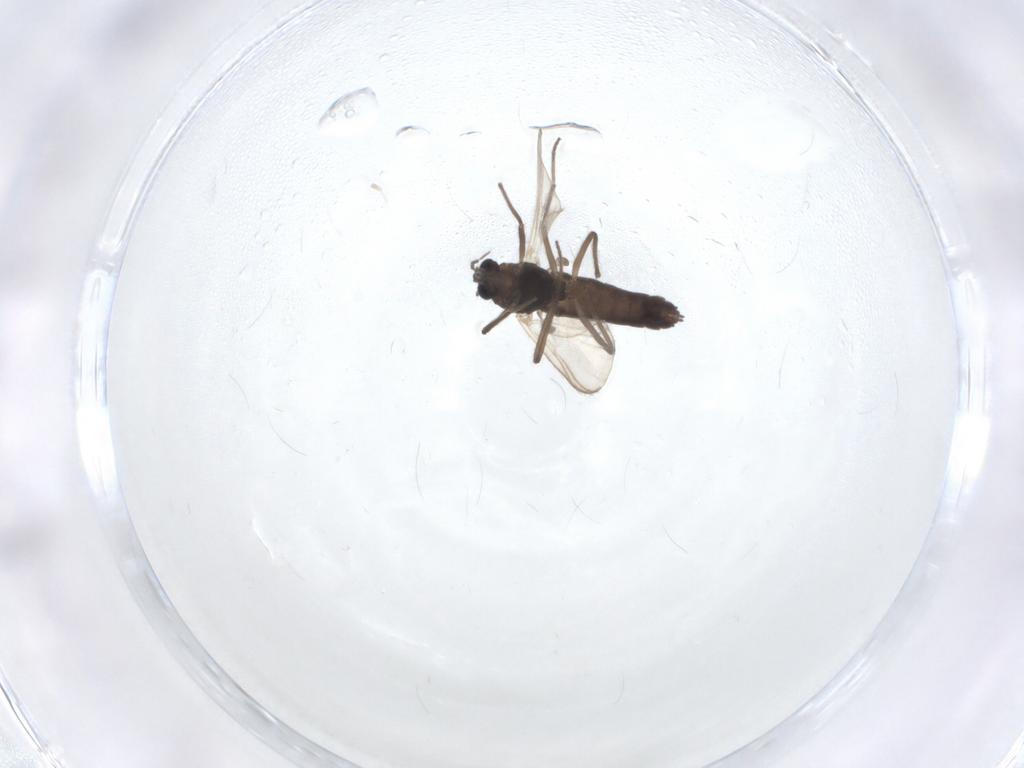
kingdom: Animalia
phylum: Arthropoda
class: Insecta
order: Diptera
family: Chironomidae
